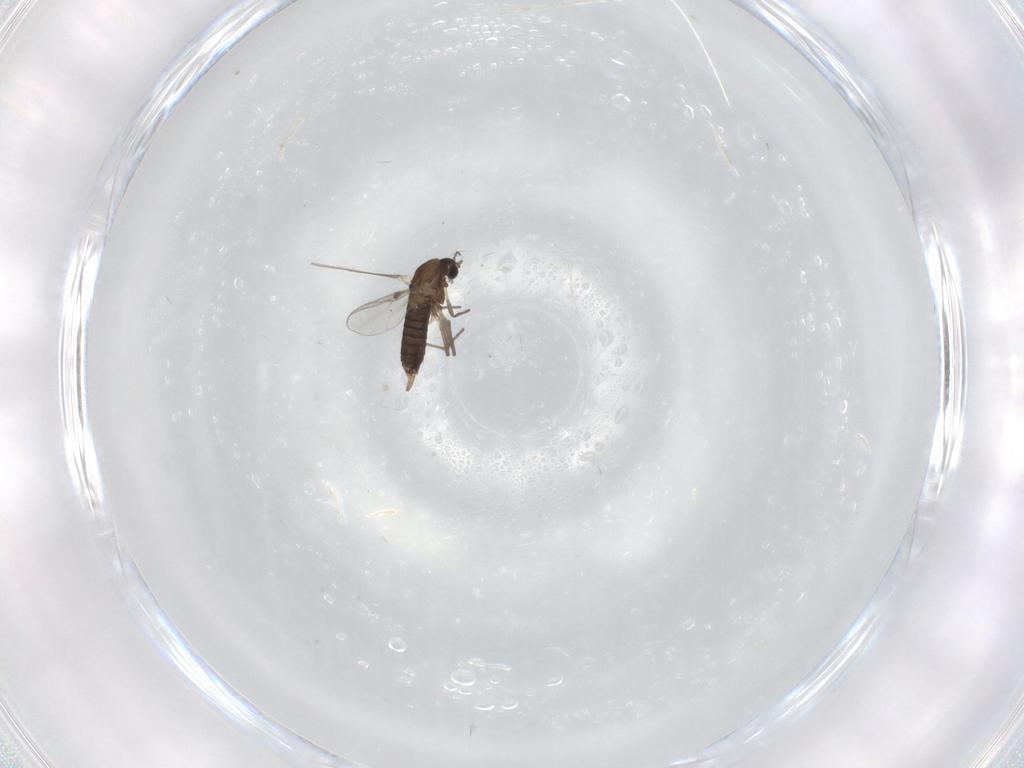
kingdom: Animalia
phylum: Arthropoda
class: Insecta
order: Diptera
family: Chironomidae
